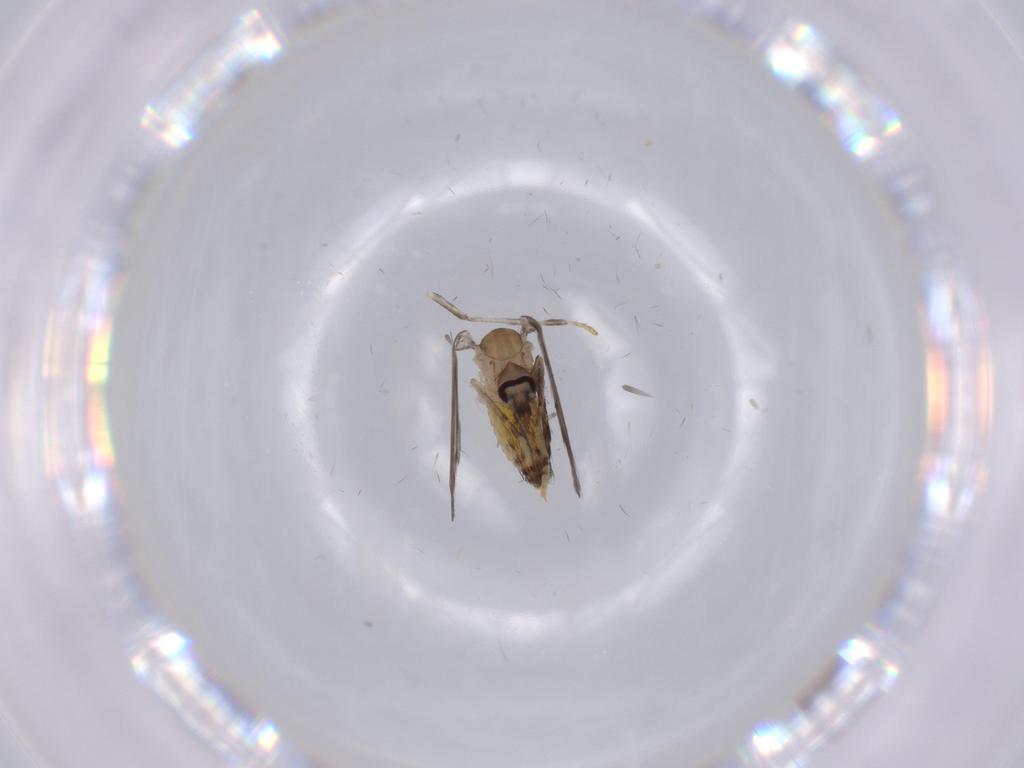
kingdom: Animalia
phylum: Arthropoda
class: Insecta
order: Diptera
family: Psychodidae
